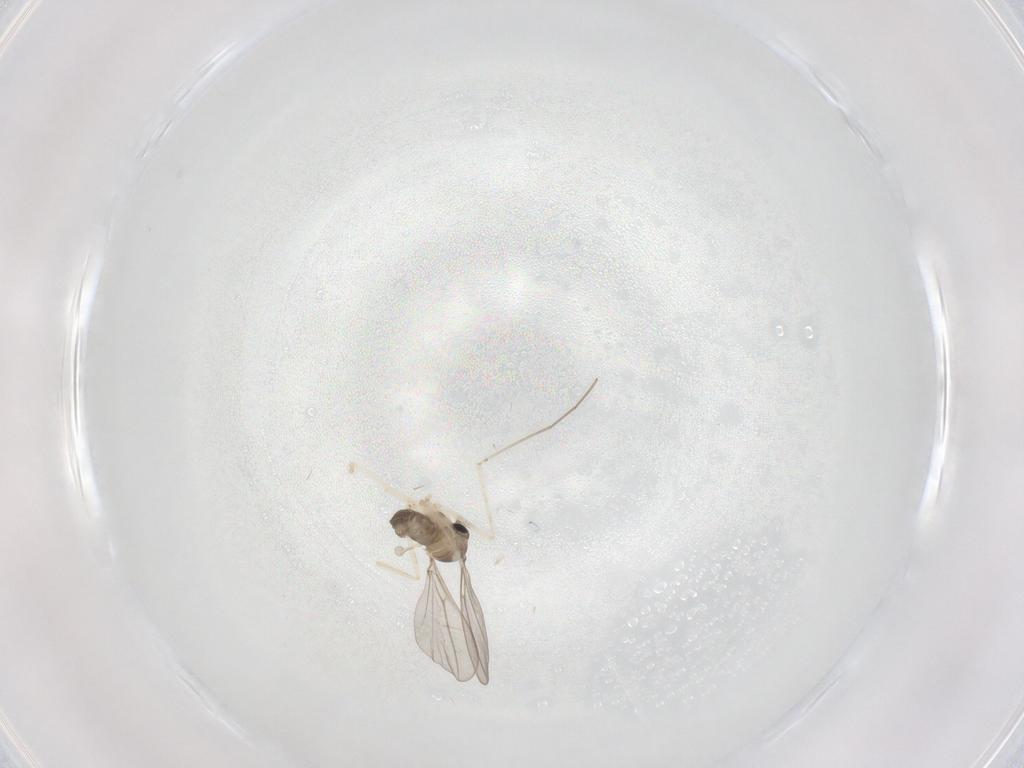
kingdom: Animalia
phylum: Arthropoda
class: Insecta
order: Diptera
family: Cecidomyiidae
